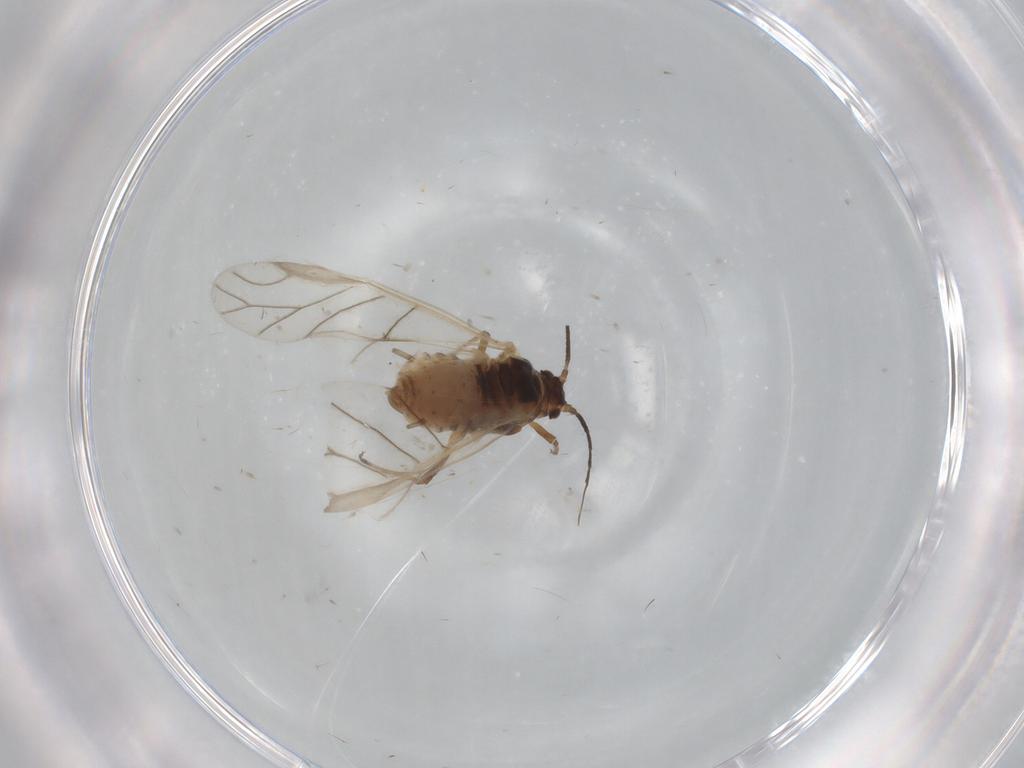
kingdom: Animalia
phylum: Arthropoda
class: Insecta
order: Hemiptera
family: Aphididae
